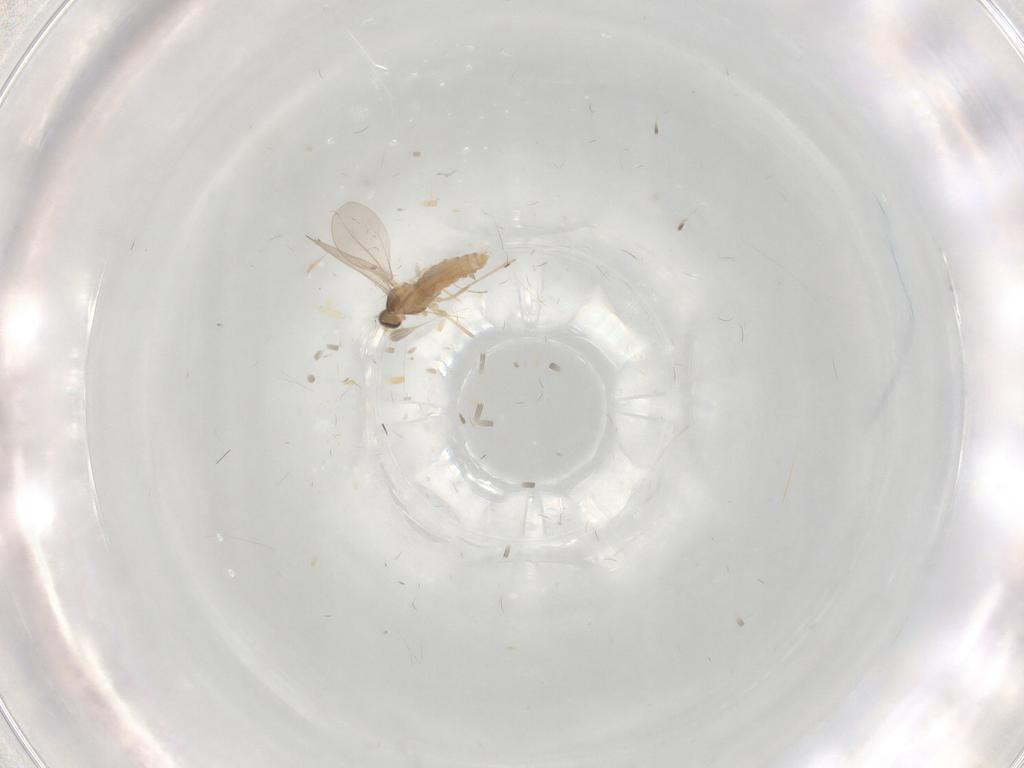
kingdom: Animalia
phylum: Arthropoda
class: Insecta
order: Diptera
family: Chironomidae
